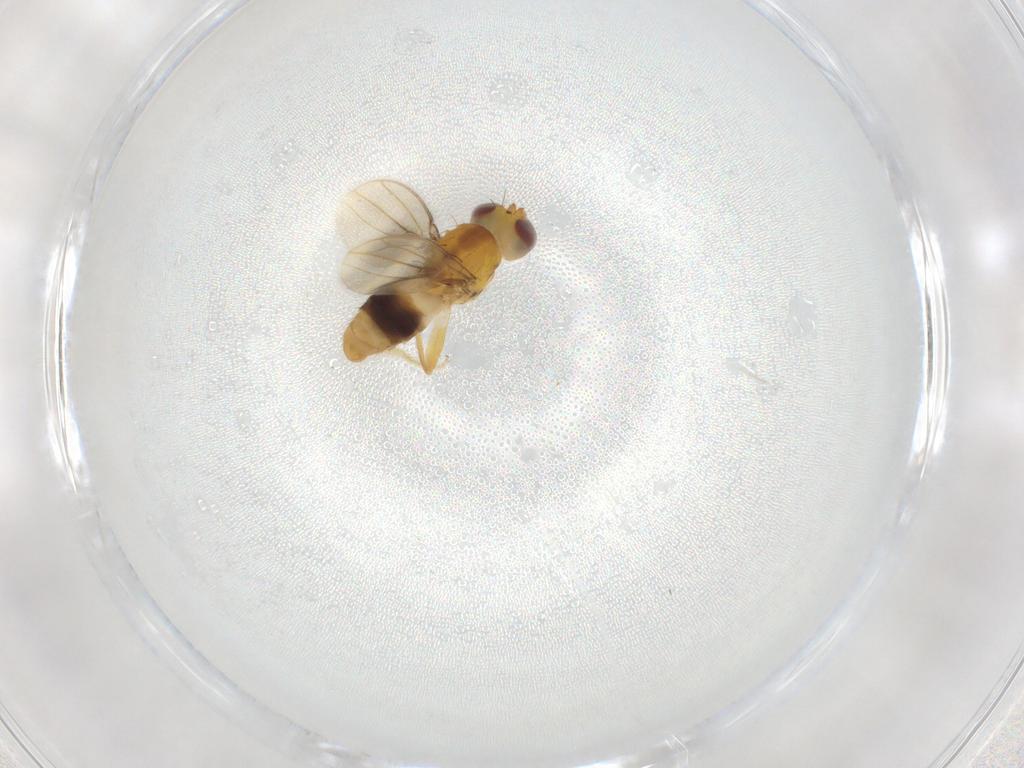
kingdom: Animalia
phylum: Arthropoda
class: Insecta
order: Diptera
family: Periscelididae
